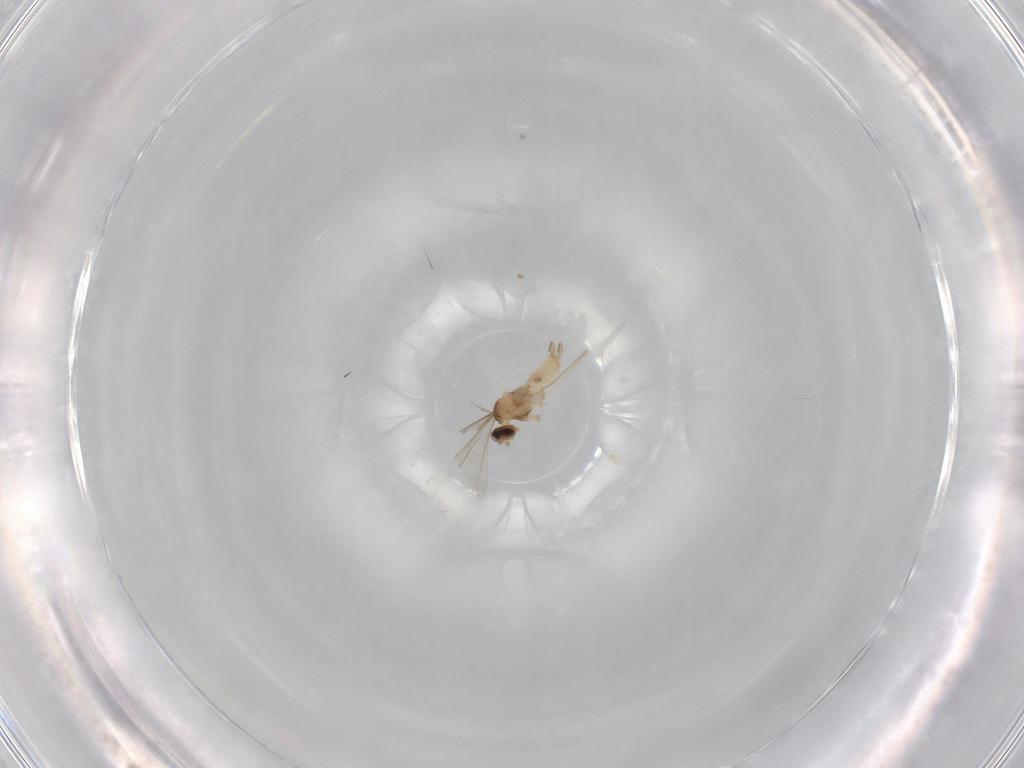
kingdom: Animalia
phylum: Arthropoda
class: Insecta
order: Diptera
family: Sarcophagidae
